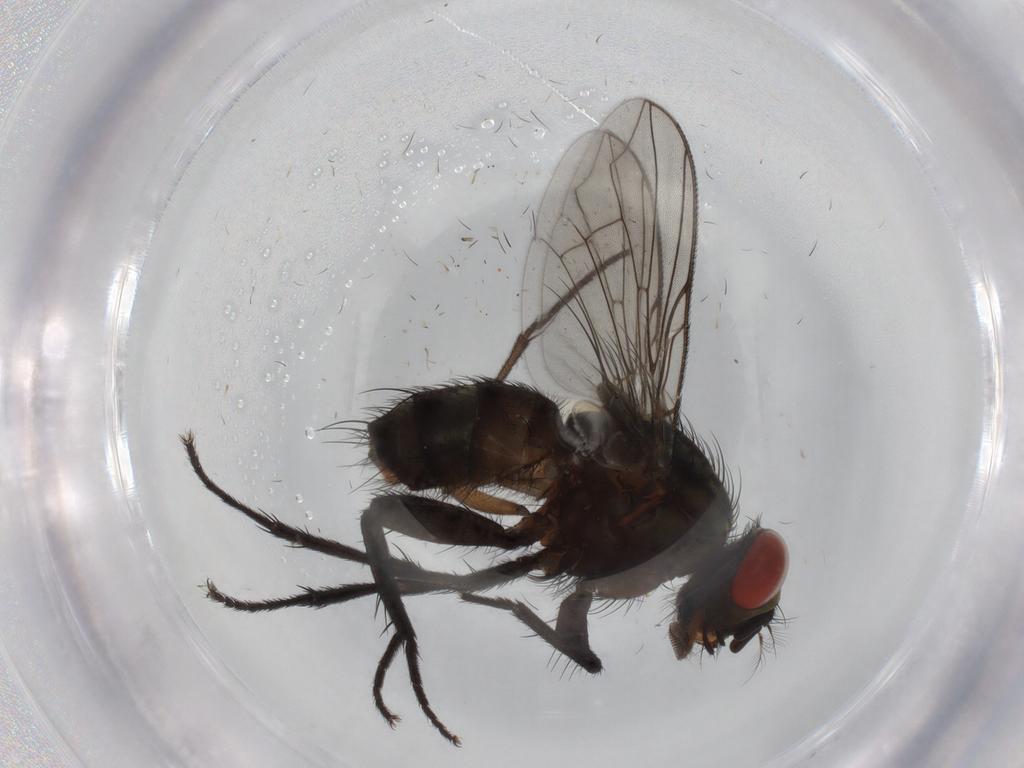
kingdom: Animalia
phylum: Arthropoda
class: Insecta
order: Diptera
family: Sarcophagidae
